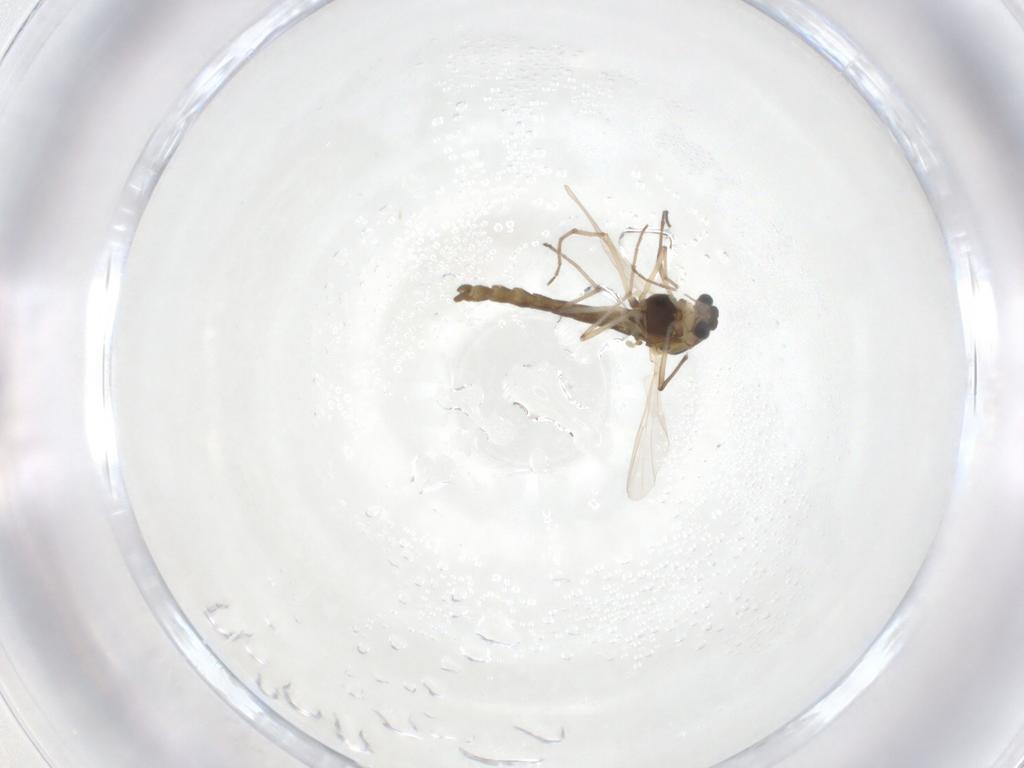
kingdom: Animalia
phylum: Arthropoda
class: Insecta
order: Diptera
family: Chironomidae
